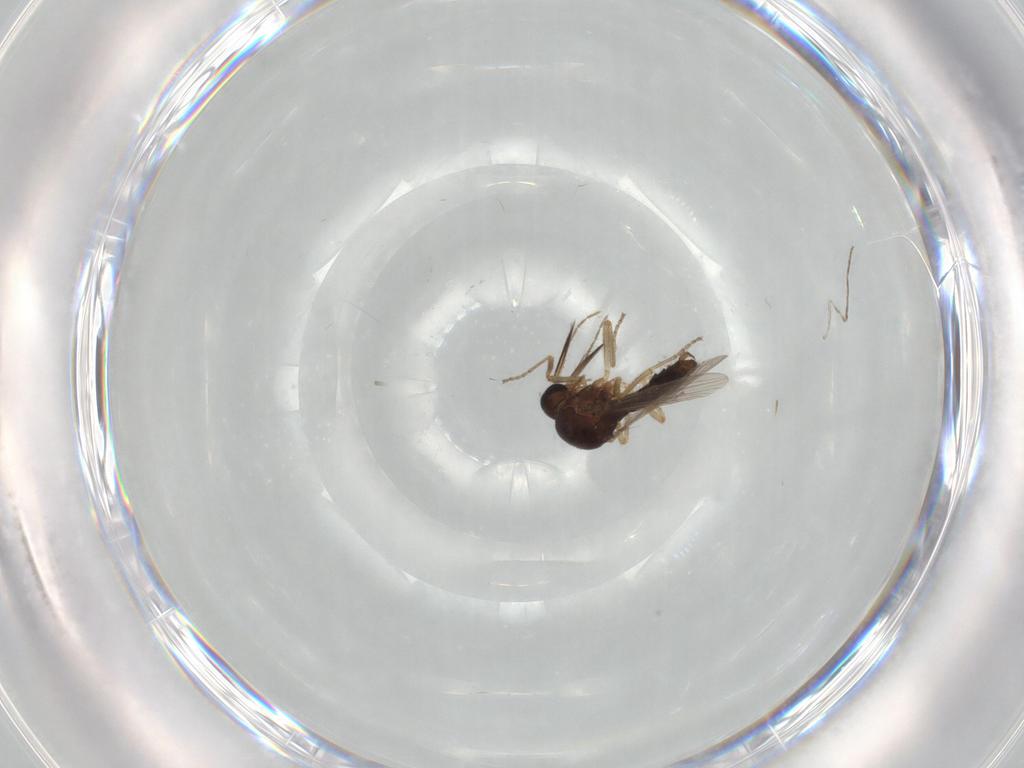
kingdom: Animalia
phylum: Arthropoda
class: Insecta
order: Diptera
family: Ceratopogonidae
